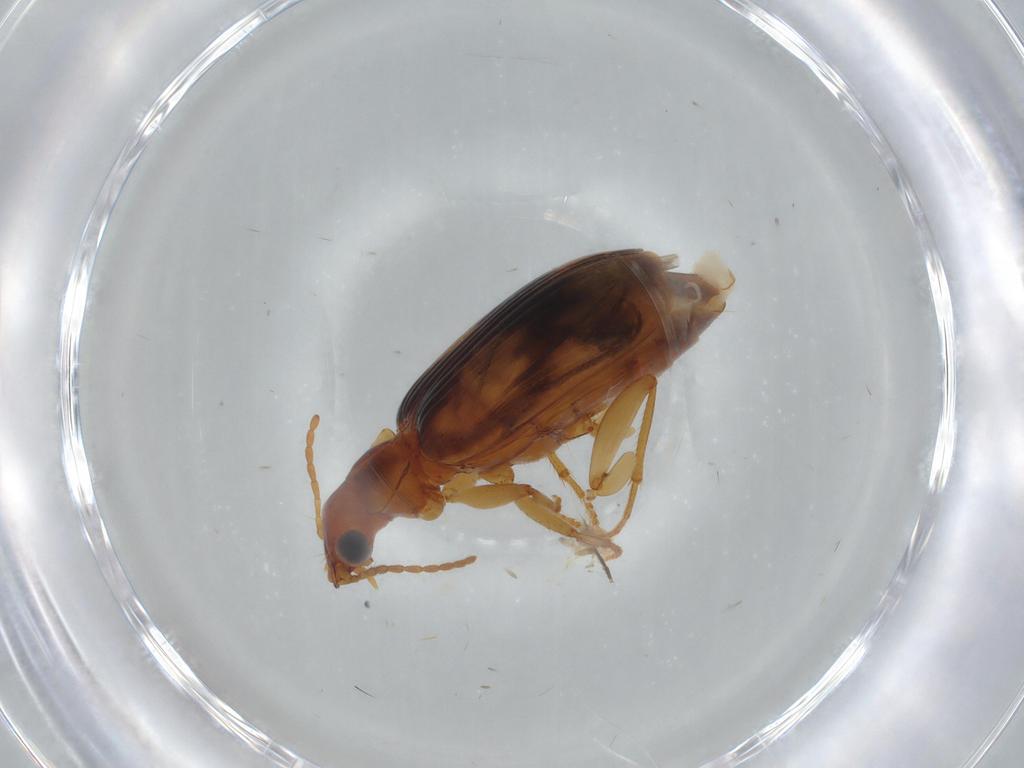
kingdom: Animalia
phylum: Arthropoda
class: Insecta
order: Coleoptera
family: Carabidae
